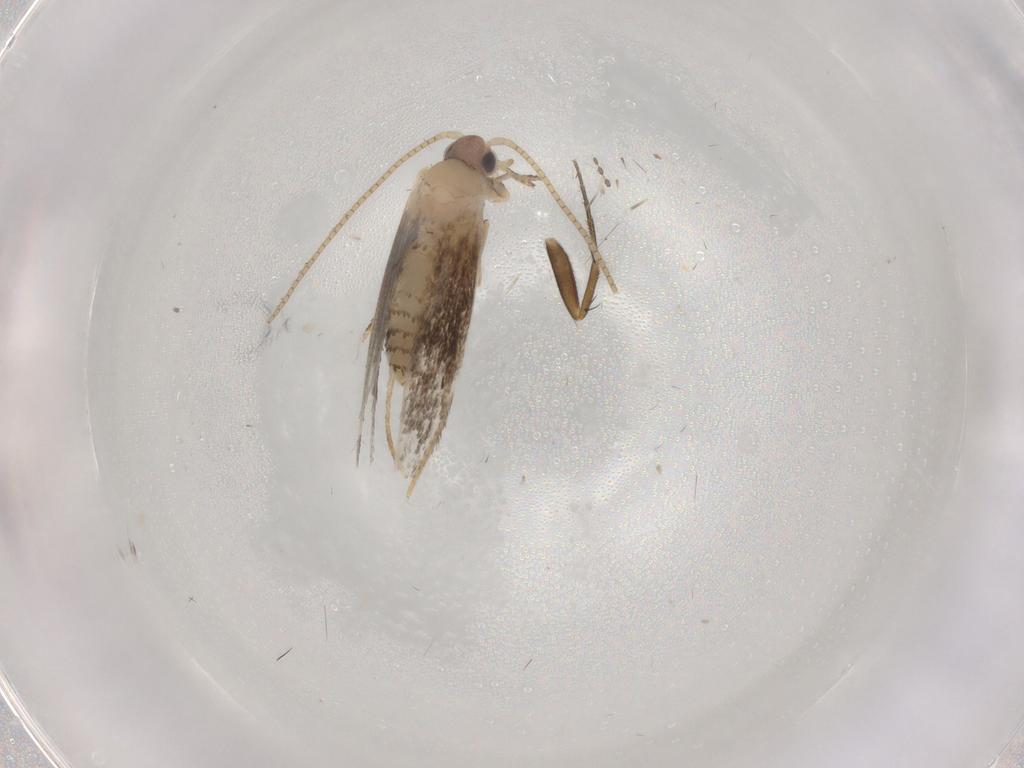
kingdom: Animalia
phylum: Arthropoda
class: Insecta
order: Lepidoptera
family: Tineidae
